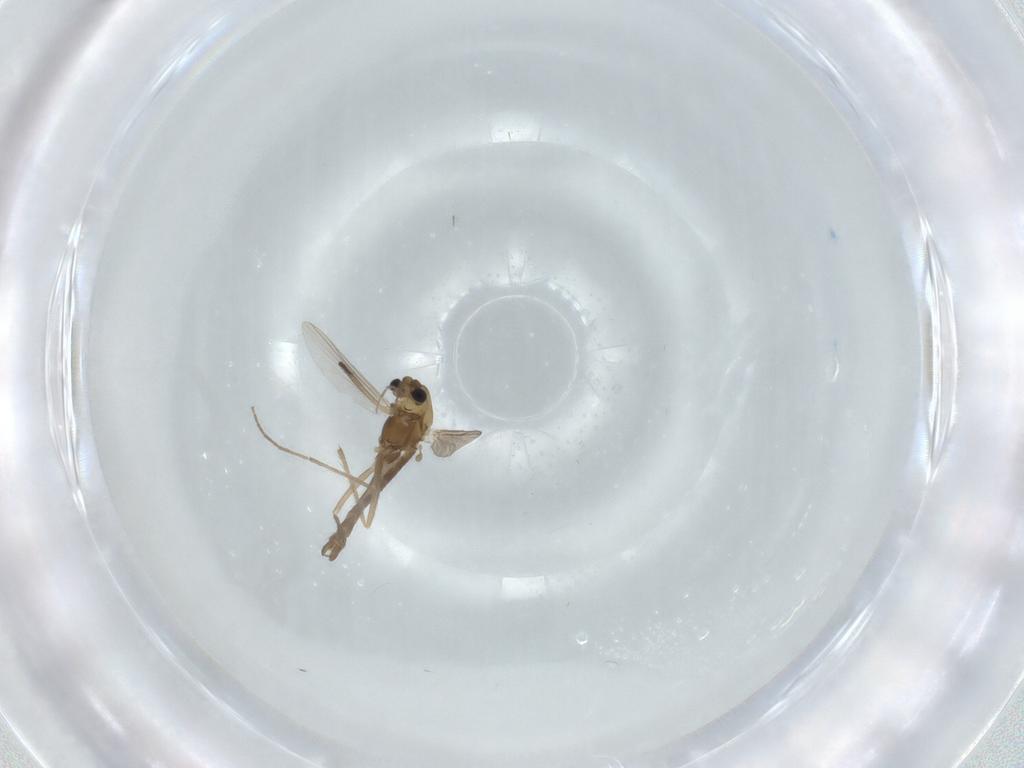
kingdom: Animalia
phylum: Arthropoda
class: Insecta
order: Diptera
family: Chironomidae
